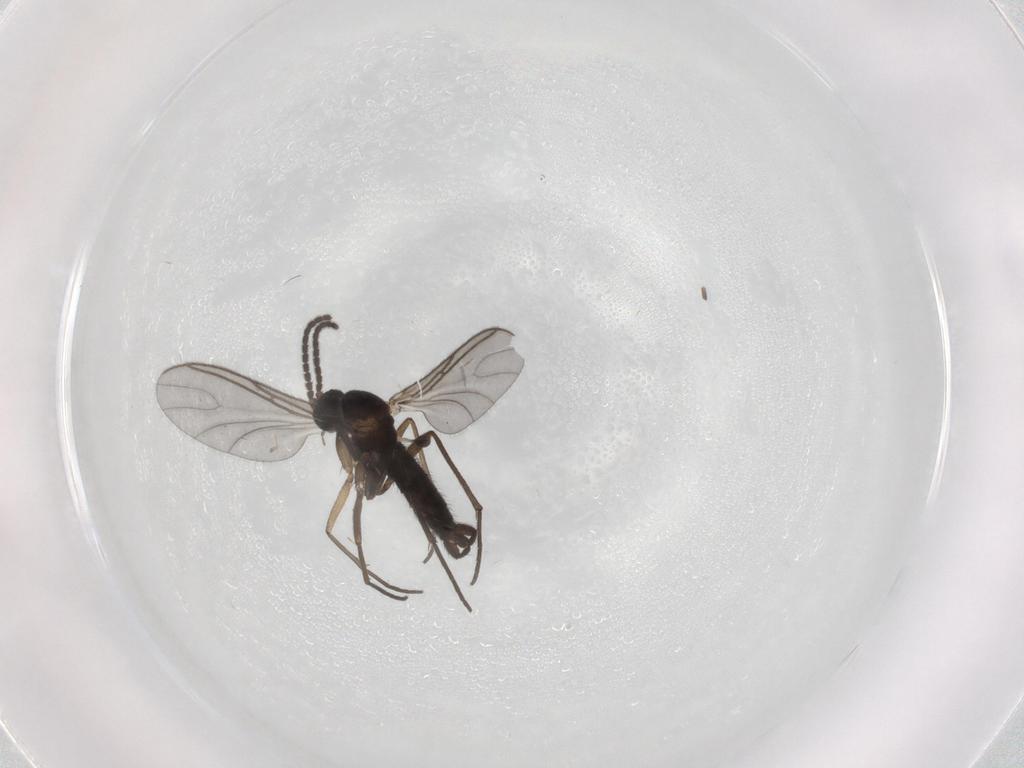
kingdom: Animalia
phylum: Arthropoda
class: Insecta
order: Diptera
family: Sciaridae
